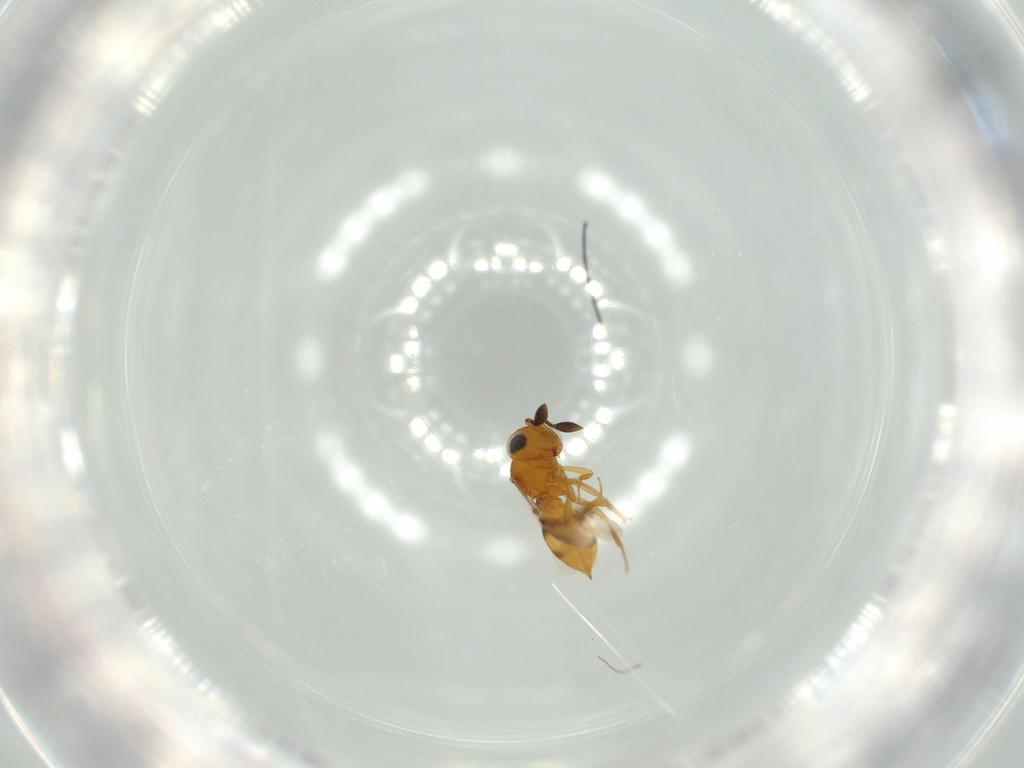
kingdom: Animalia
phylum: Arthropoda
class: Insecta
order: Hymenoptera
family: Scelionidae
